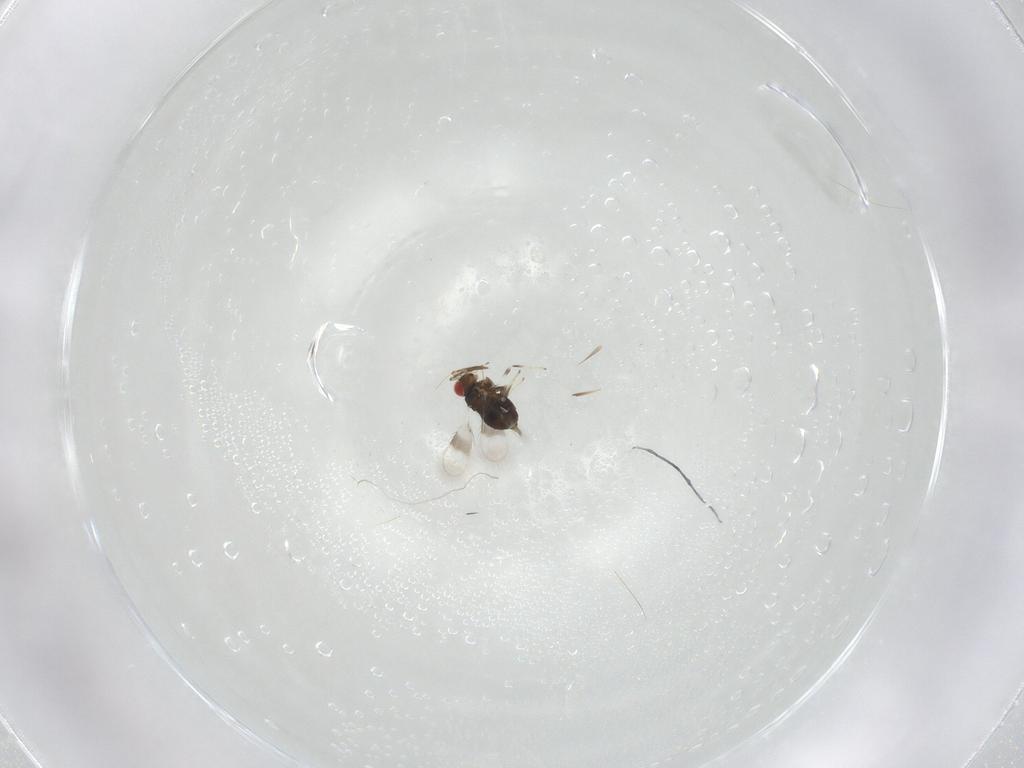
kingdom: Animalia
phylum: Arthropoda
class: Insecta
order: Hymenoptera
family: Azotidae
